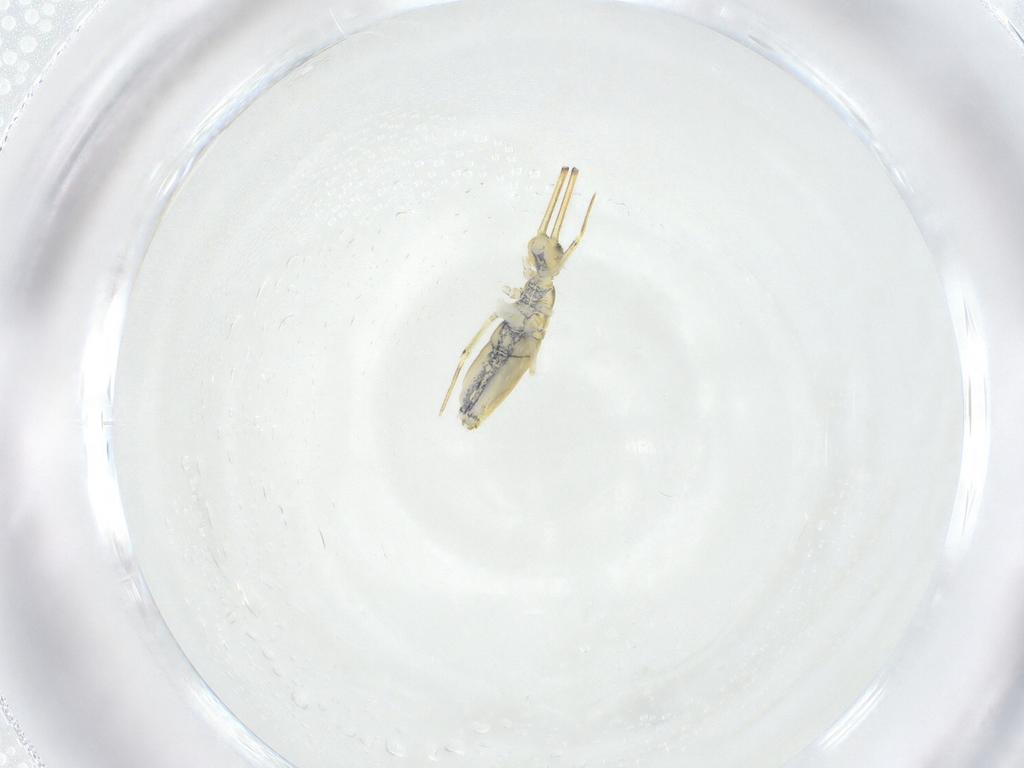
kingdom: Animalia
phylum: Arthropoda
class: Collembola
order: Entomobryomorpha
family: Paronellidae
